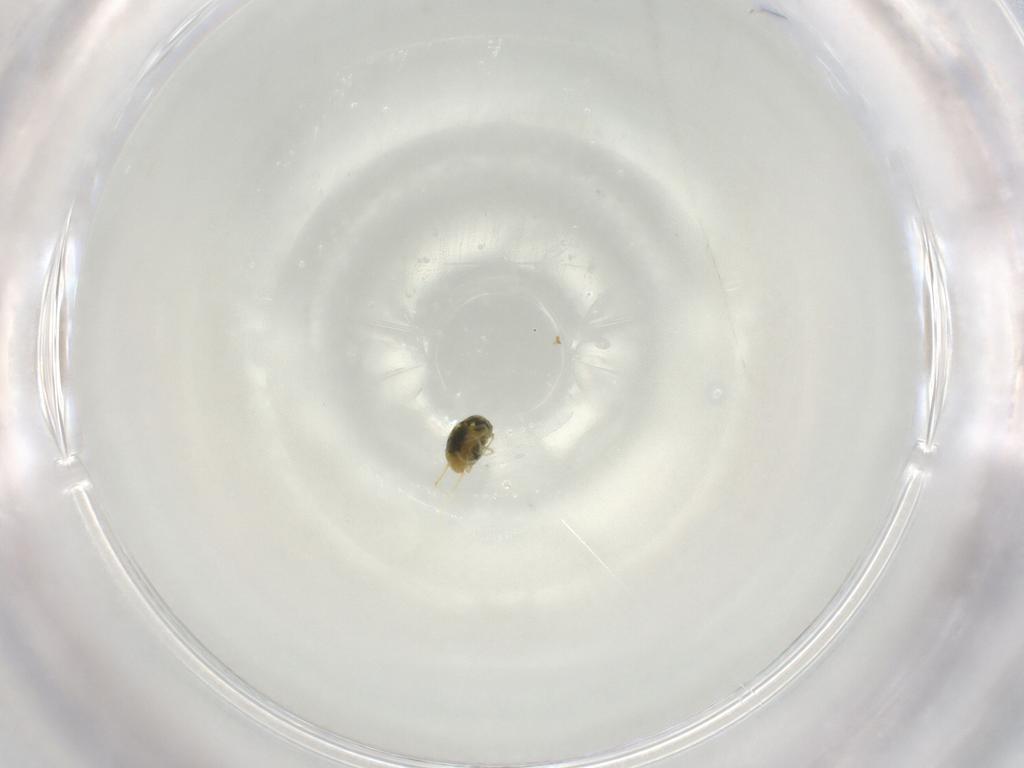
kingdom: Animalia
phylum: Arthropoda
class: Arachnida
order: Trombidiformes
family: Tetranychidae
